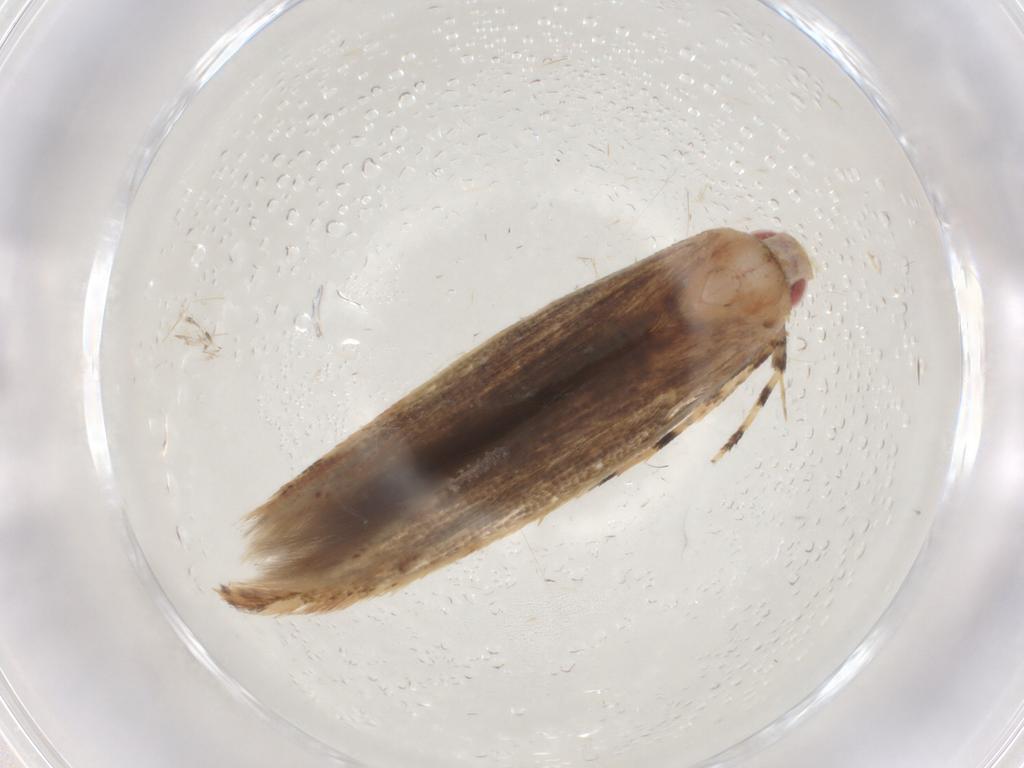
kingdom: Animalia
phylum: Arthropoda
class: Insecta
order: Lepidoptera
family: Cosmopterigidae
